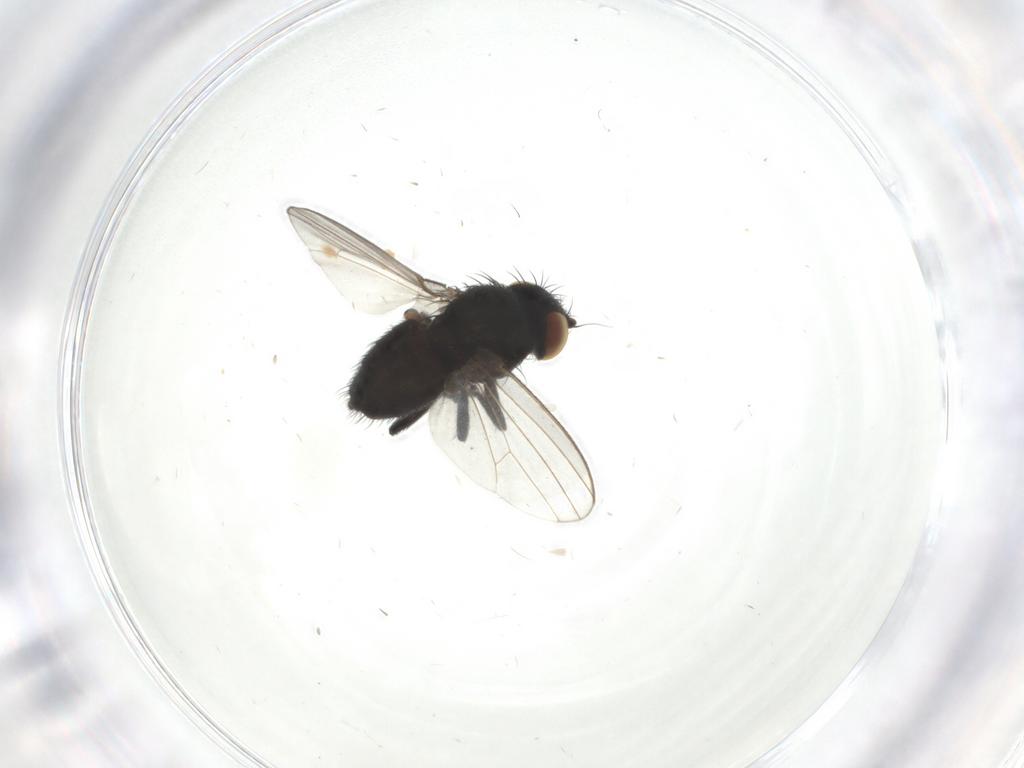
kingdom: Animalia
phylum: Arthropoda
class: Insecta
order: Diptera
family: Milichiidae
